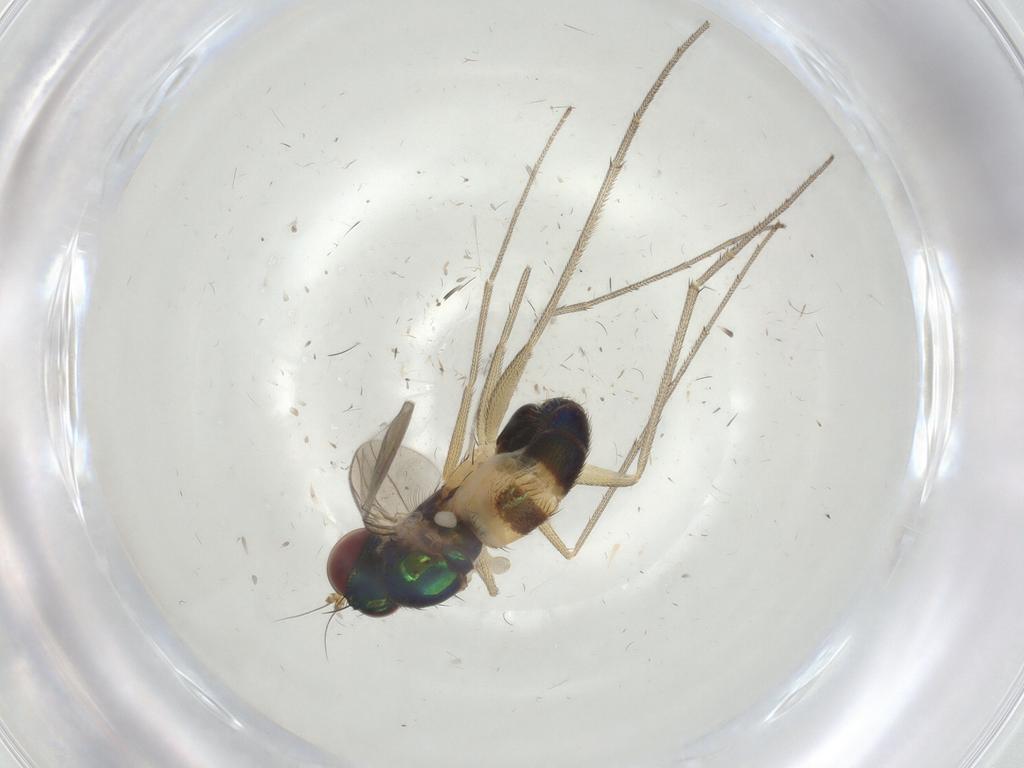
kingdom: Animalia
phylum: Arthropoda
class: Insecta
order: Diptera
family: Dolichopodidae
